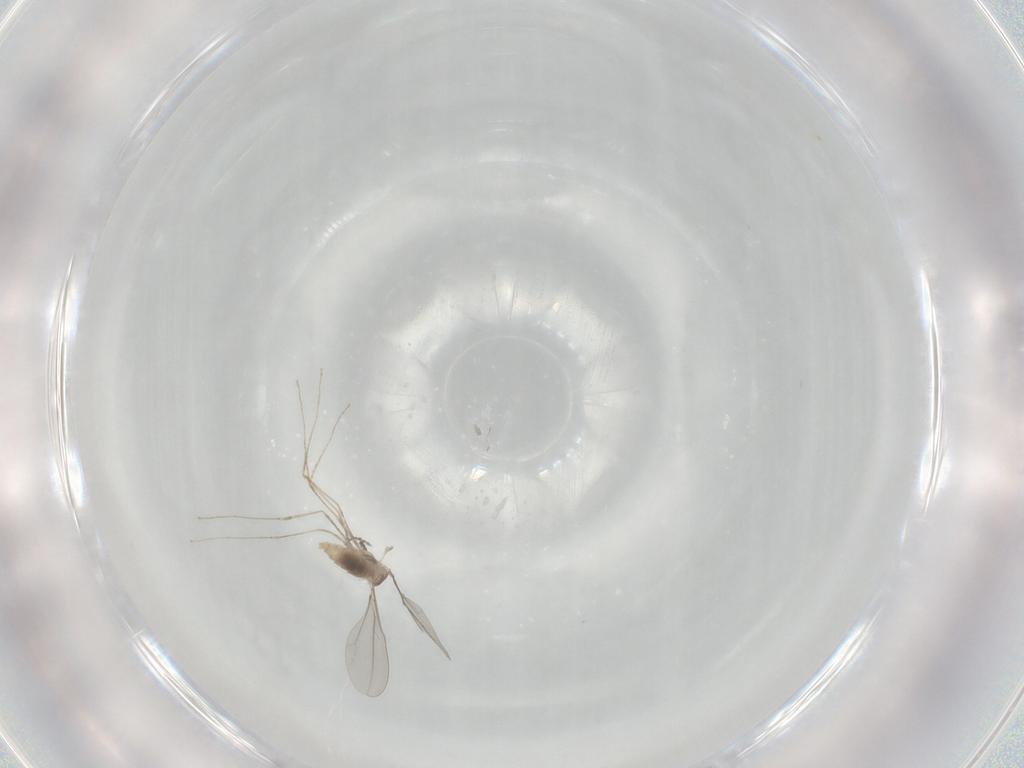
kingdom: Animalia
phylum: Arthropoda
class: Insecta
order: Diptera
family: Cecidomyiidae
